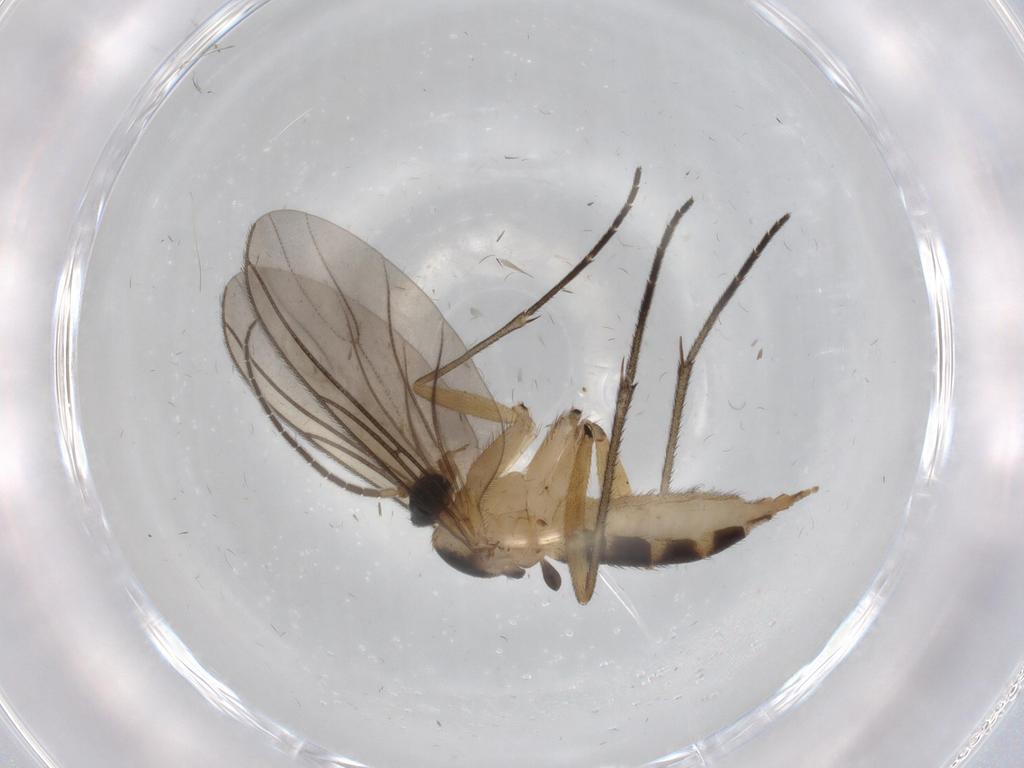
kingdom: Animalia
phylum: Arthropoda
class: Insecta
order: Diptera
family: Sciaridae
